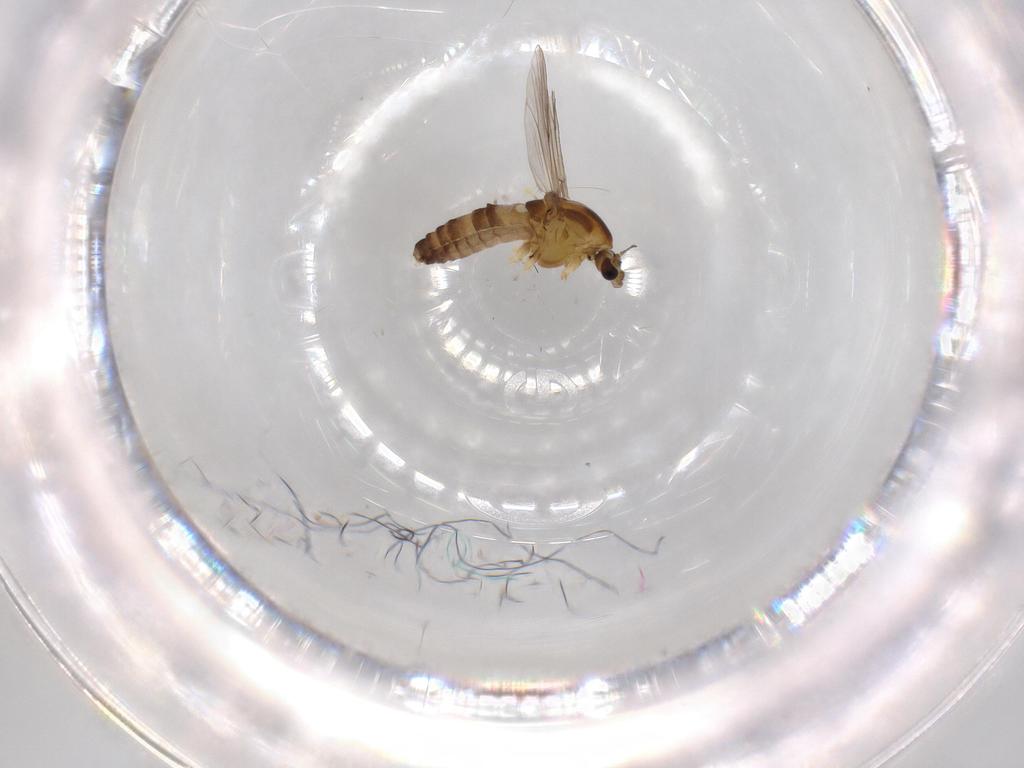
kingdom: Animalia
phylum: Arthropoda
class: Insecta
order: Diptera
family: Chironomidae
